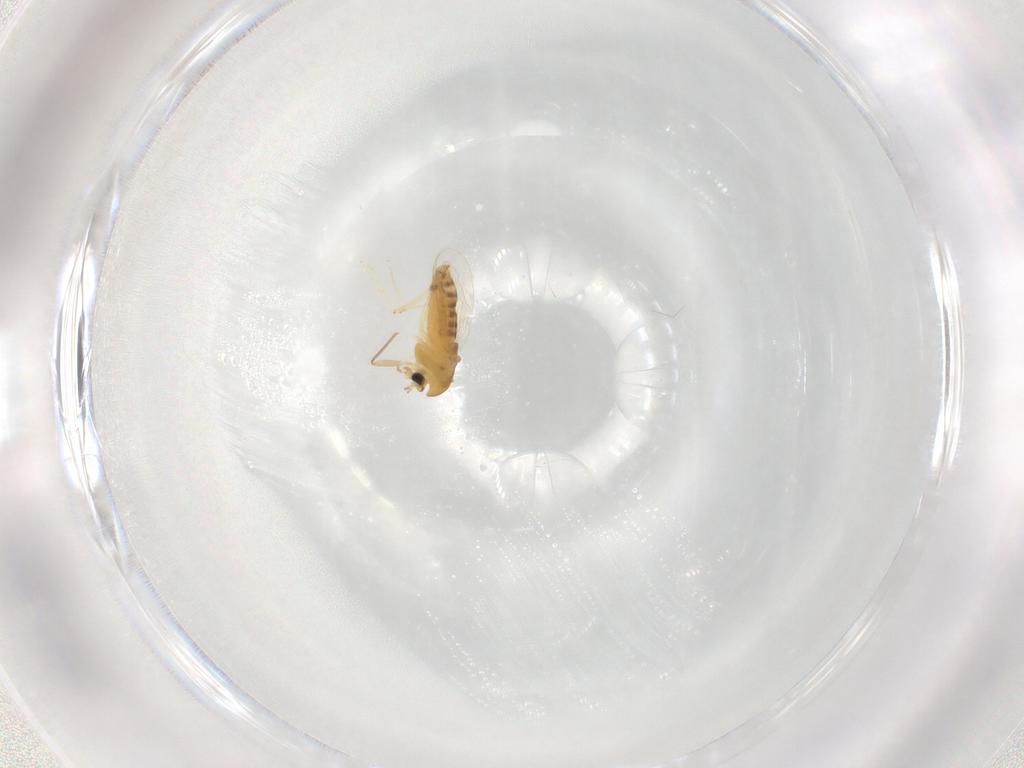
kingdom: Animalia
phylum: Arthropoda
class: Insecta
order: Diptera
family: Chironomidae
